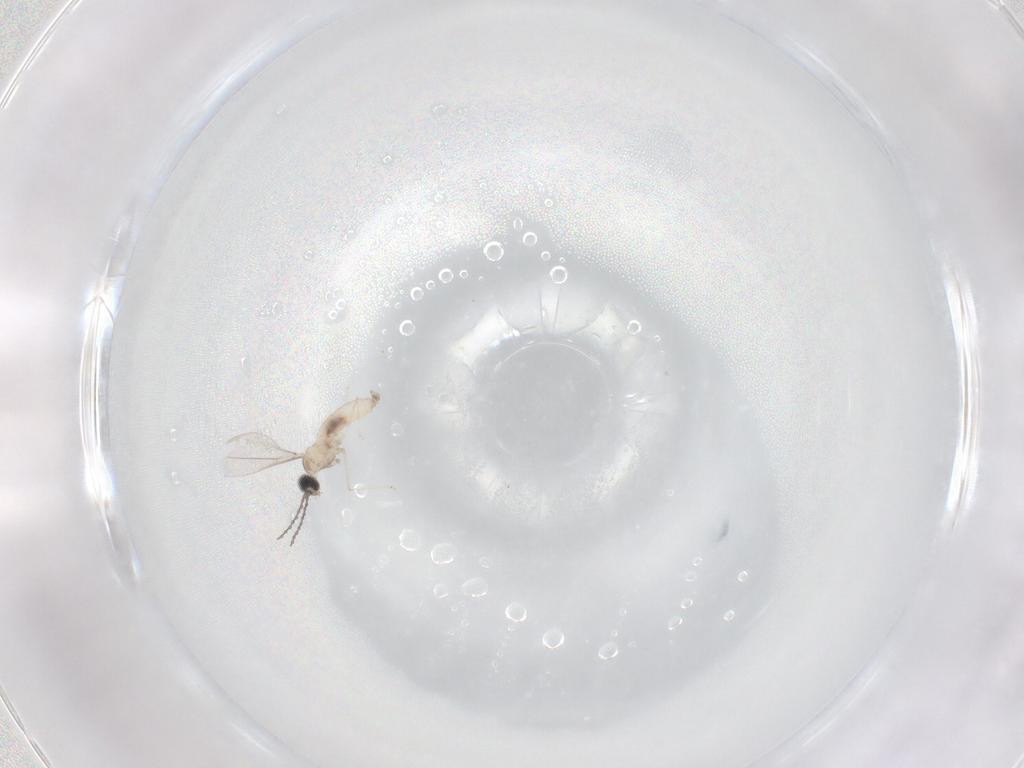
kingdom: Animalia
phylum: Arthropoda
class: Insecta
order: Diptera
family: Cecidomyiidae
